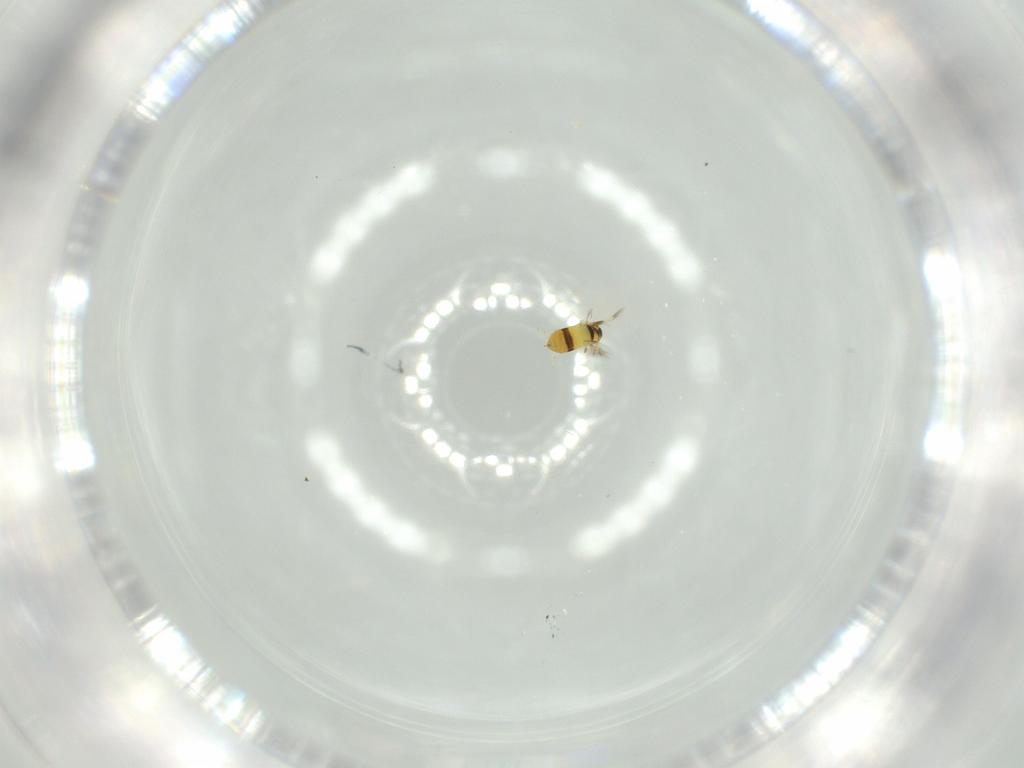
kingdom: Animalia
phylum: Arthropoda
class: Insecta
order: Hymenoptera
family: Signiphoridae
